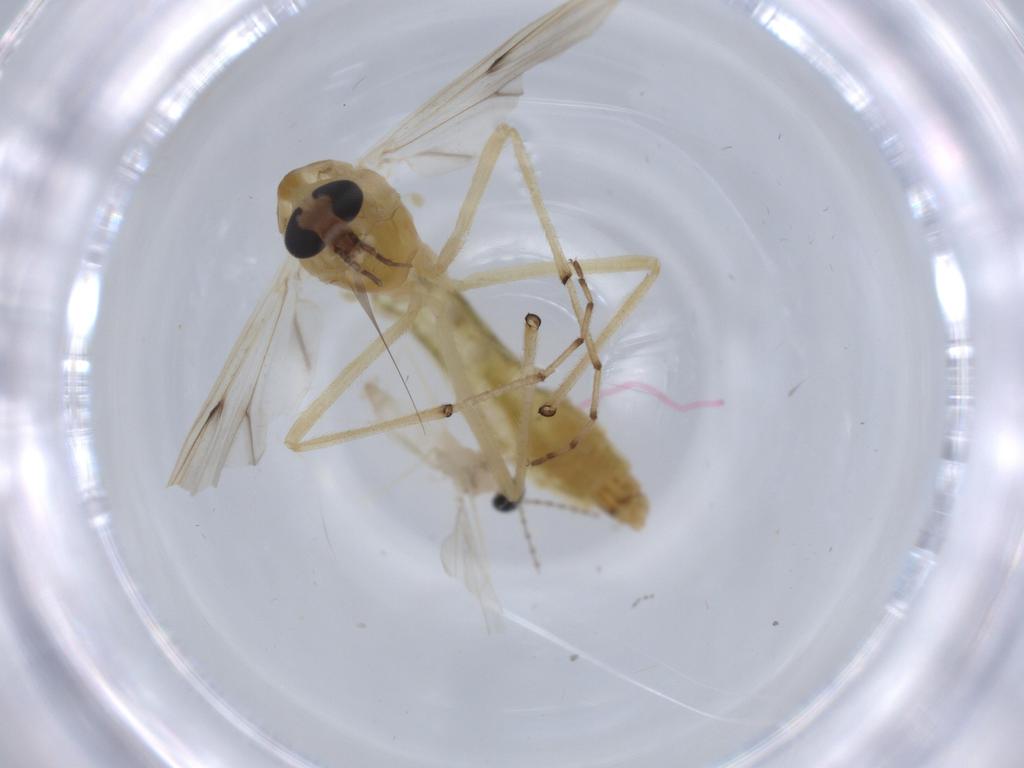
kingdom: Animalia
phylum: Arthropoda
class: Insecta
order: Diptera
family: Chironomidae
